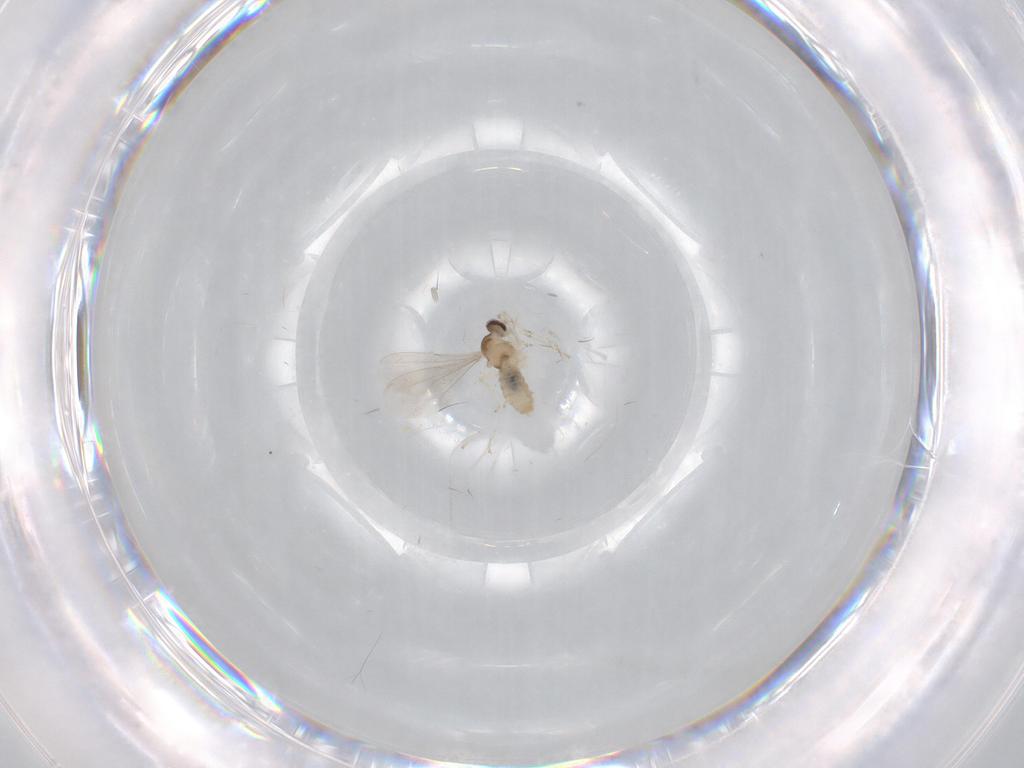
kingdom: Animalia
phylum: Arthropoda
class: Insecta
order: Diptera
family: Cecidomyiidae
